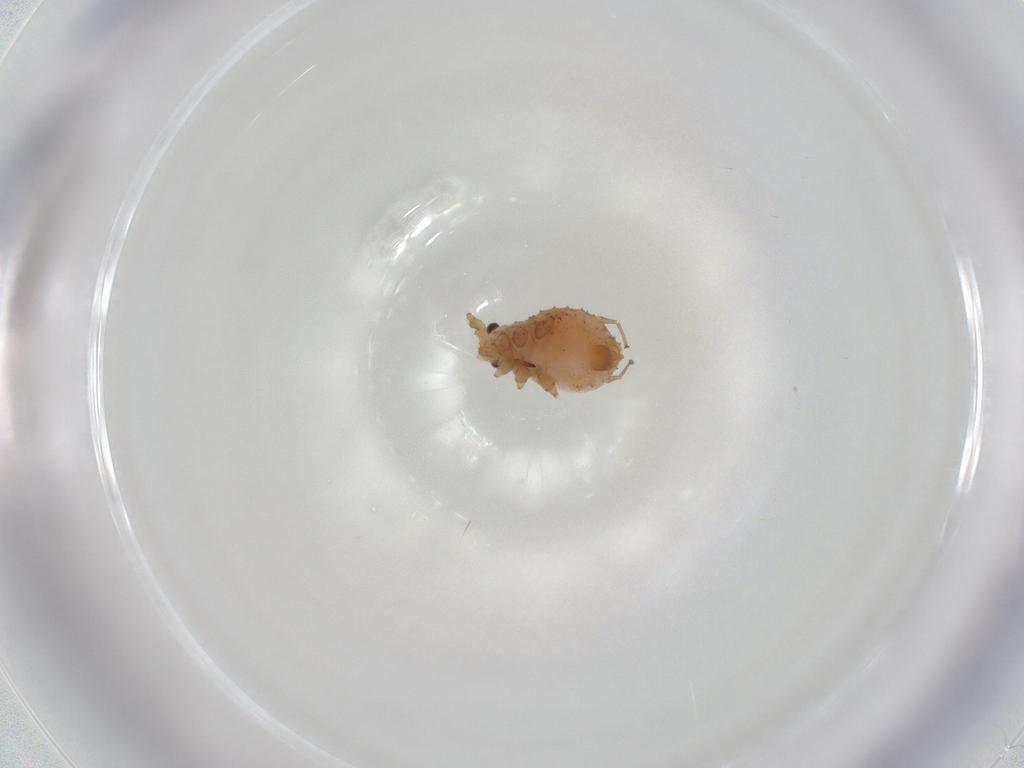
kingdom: Animalia
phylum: Arthropoda
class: Insecta
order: Hemiptera
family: Aphididae
